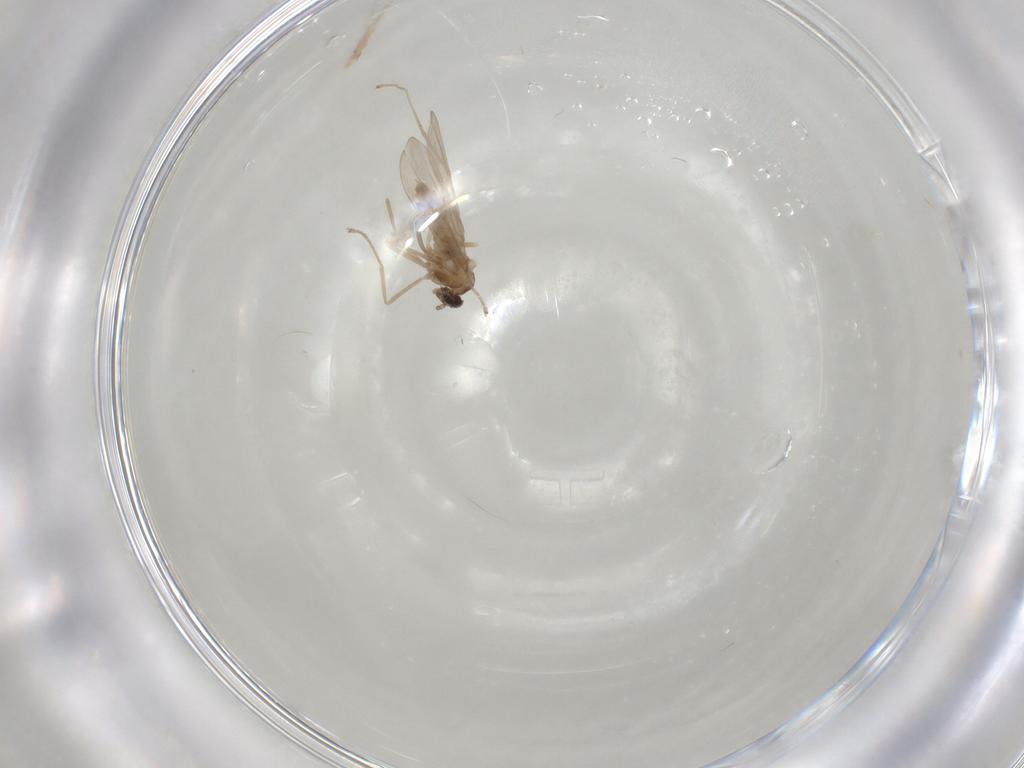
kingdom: Animalia
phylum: Arthropoda
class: Insecta
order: Diptera
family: Cecidomyiidae
